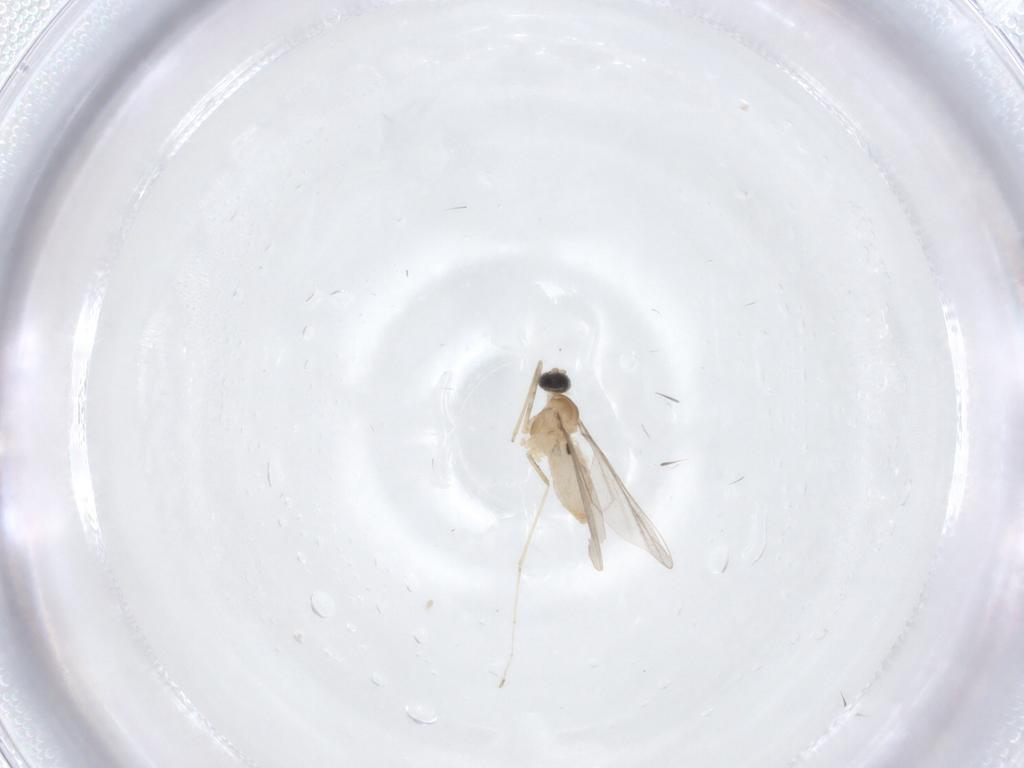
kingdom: Animalia
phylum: Arthropoda
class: Insecta
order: Diptera
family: Cecidomyiidae
